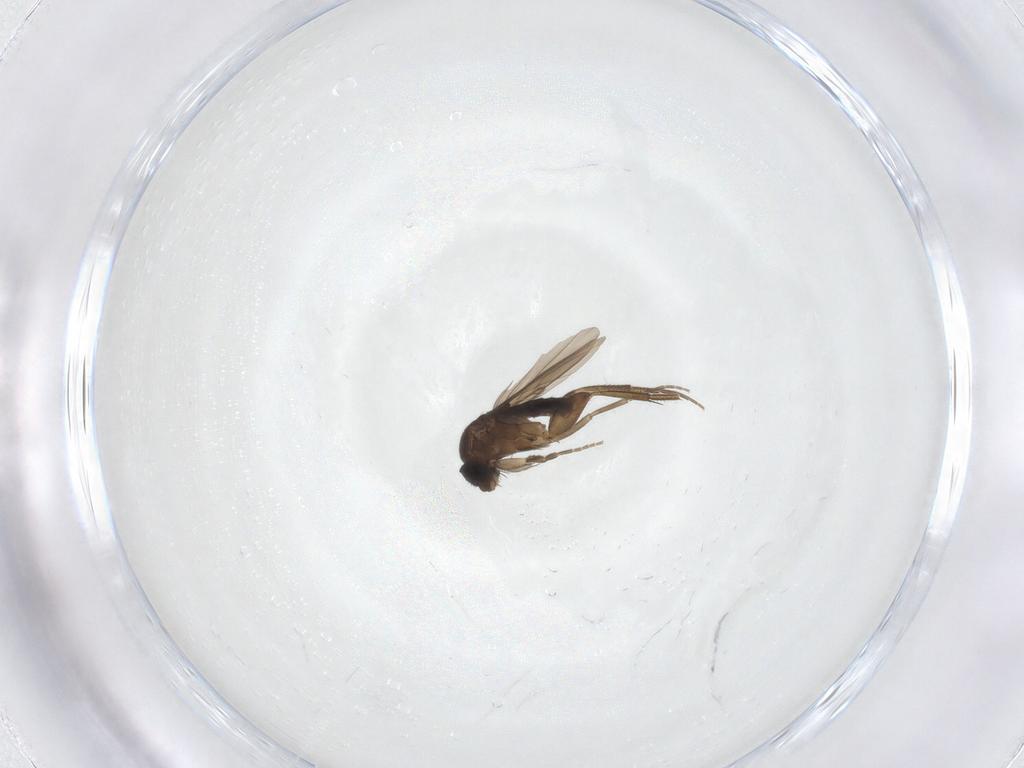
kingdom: Animalia
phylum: Arthropoda
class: Insecta
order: Diptera
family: Phoridae
